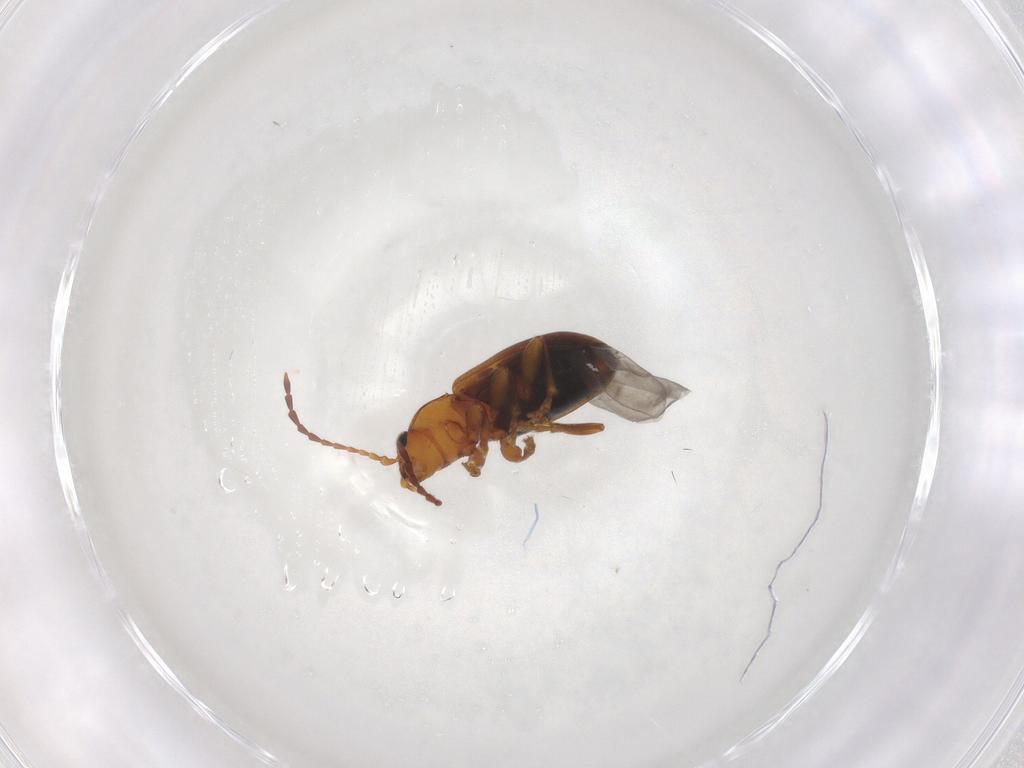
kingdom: Animalia
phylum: Arthropoda
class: Insecta
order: Coleoptera
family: Chrysomelidae
